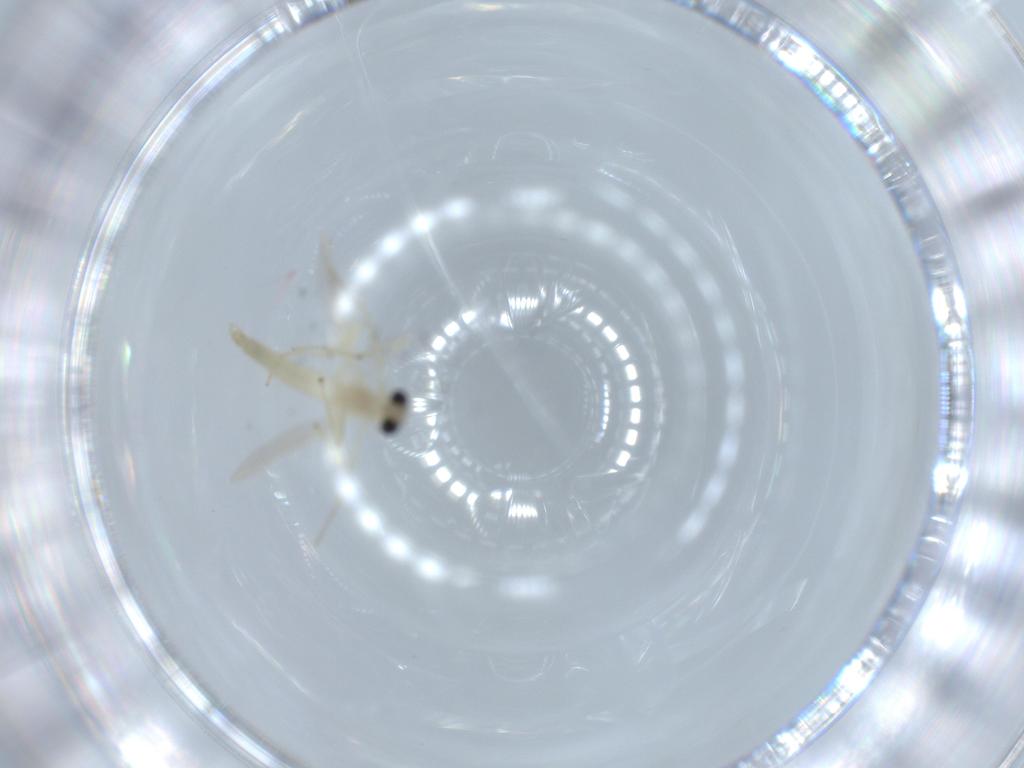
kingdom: Animalia
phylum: Arthropoda
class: Insecta
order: Diptera
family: Chironomidae
